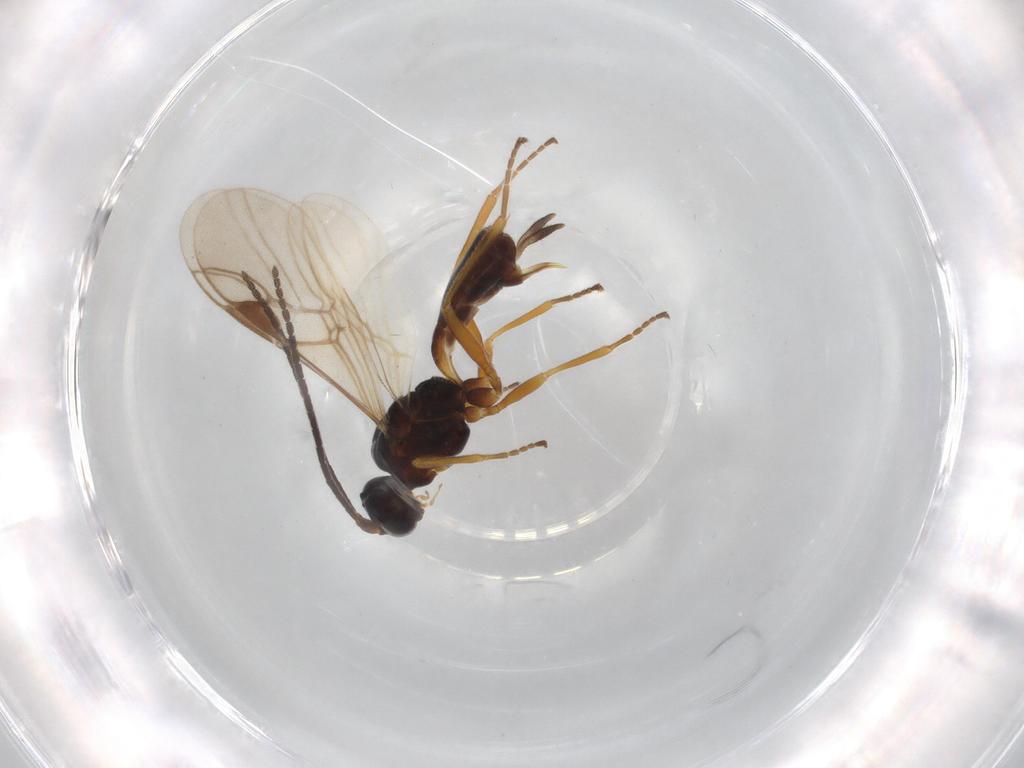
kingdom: Animalia
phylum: Arthropoda
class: Insecta
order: Hymenoptera
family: Braconidae
